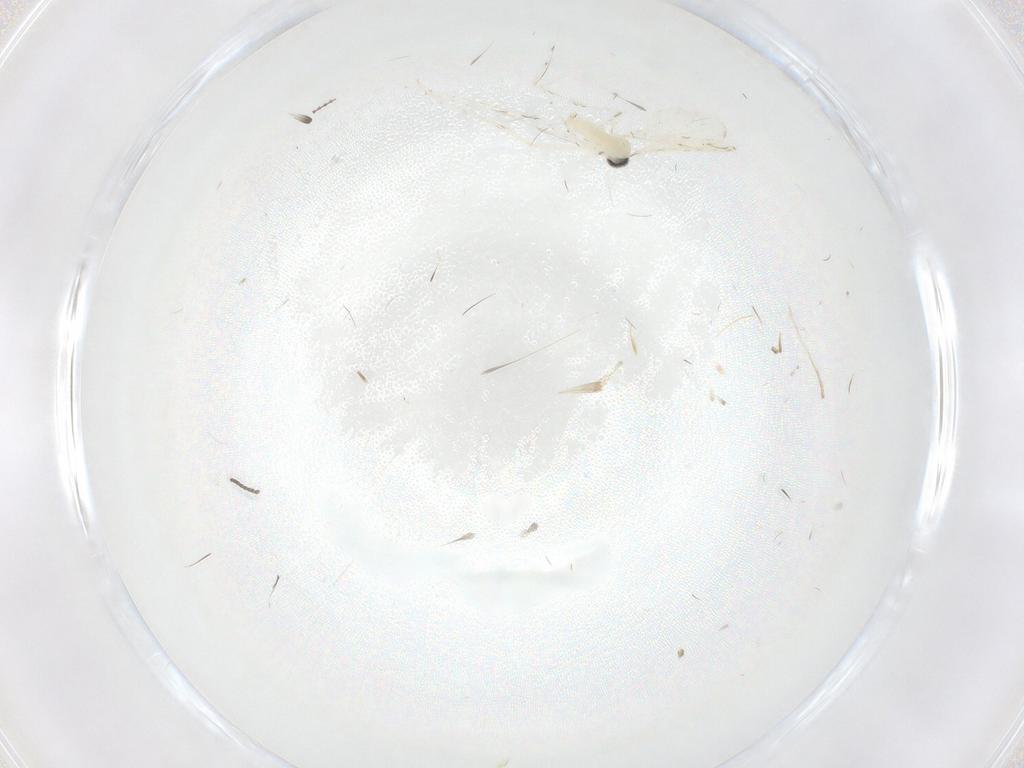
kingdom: Animalia
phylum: Arthropoda
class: Insecta
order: Diptera
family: Cecidomyiidae
